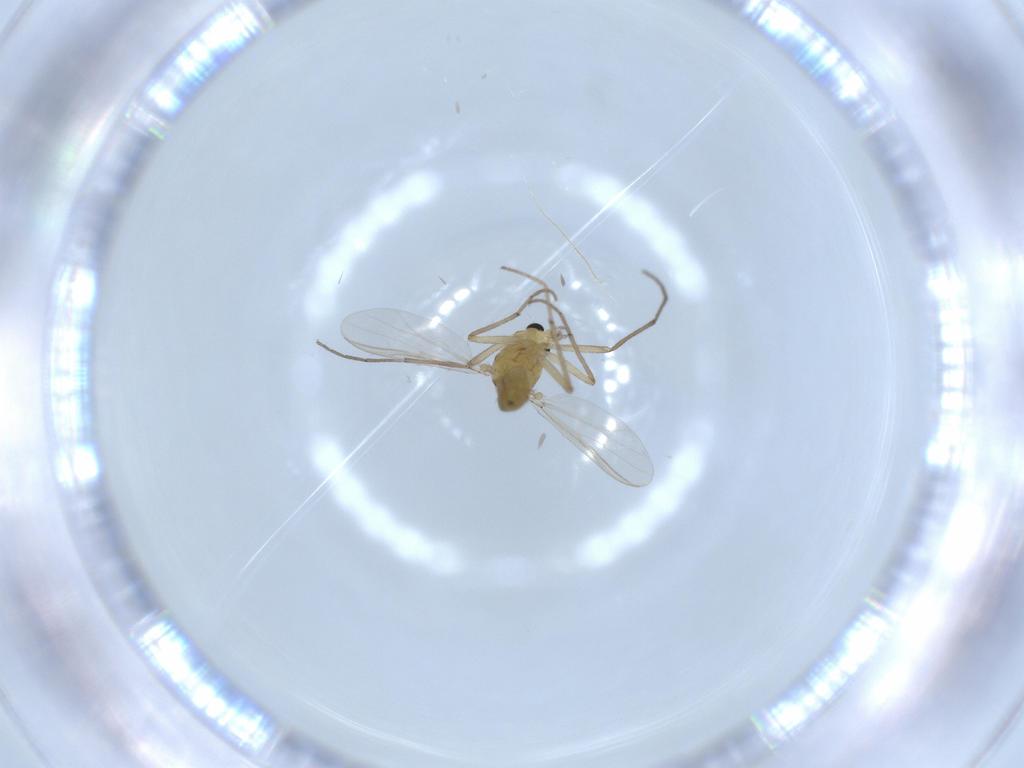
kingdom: Animalia
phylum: Arthropoda
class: Insecta
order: Diptera
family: Chironomidae
